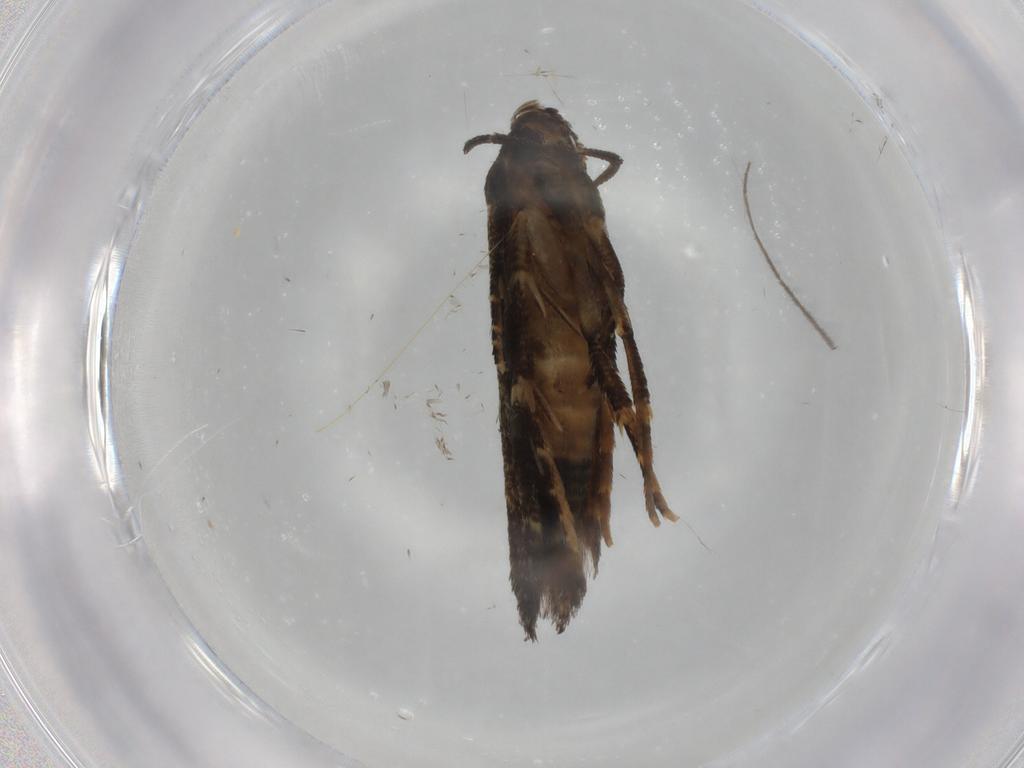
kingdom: Animalia
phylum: Arthropoda
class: Insecta
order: Lepidoptera
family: Cosmopterigidae
